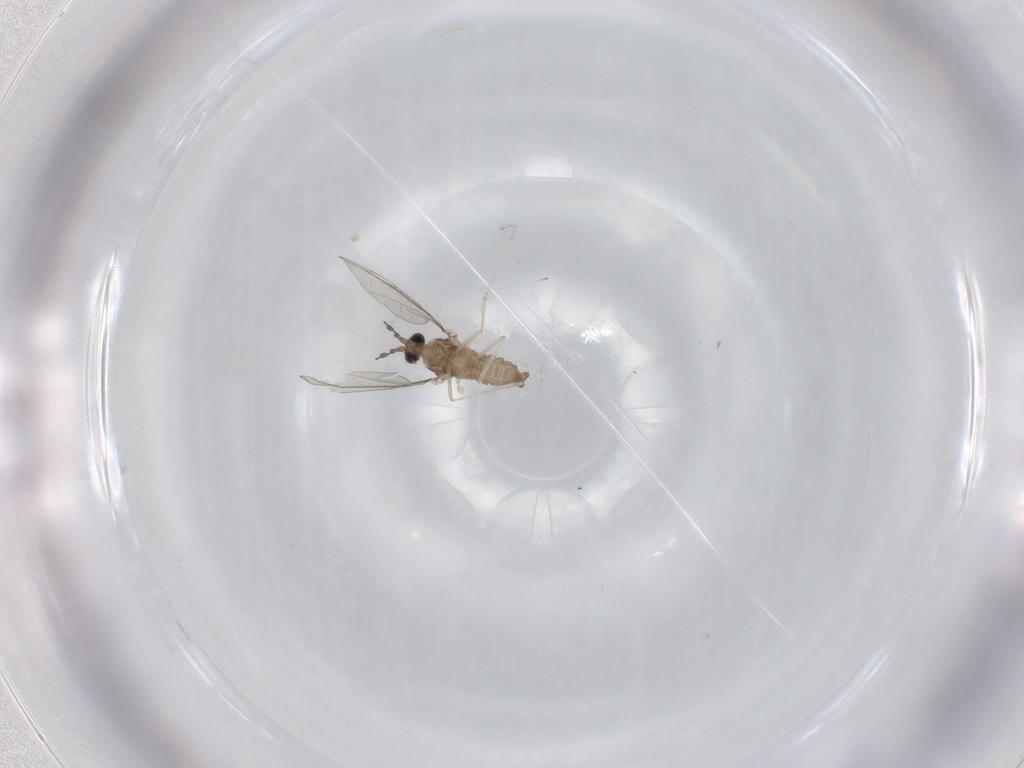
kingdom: Animalia
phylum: Arthropoda
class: Insecta
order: Diptera
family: Cecidomyiidae
